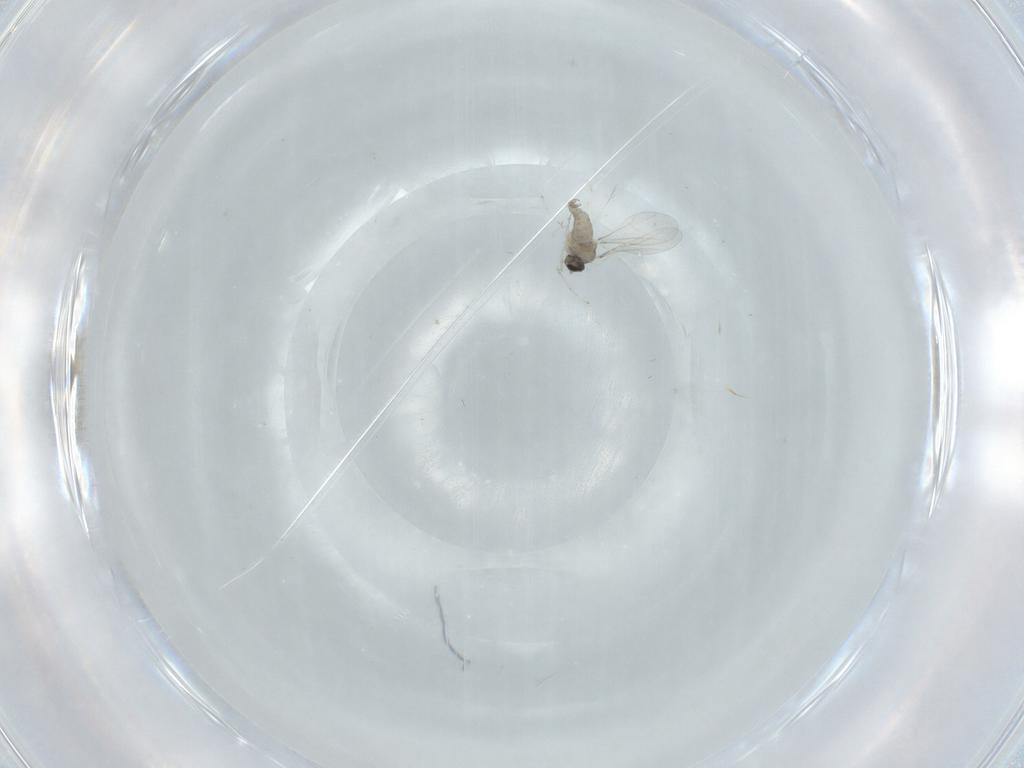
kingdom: Animalia
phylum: Arthropoda
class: Insecta
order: Diptera
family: Cecidomyiidae
